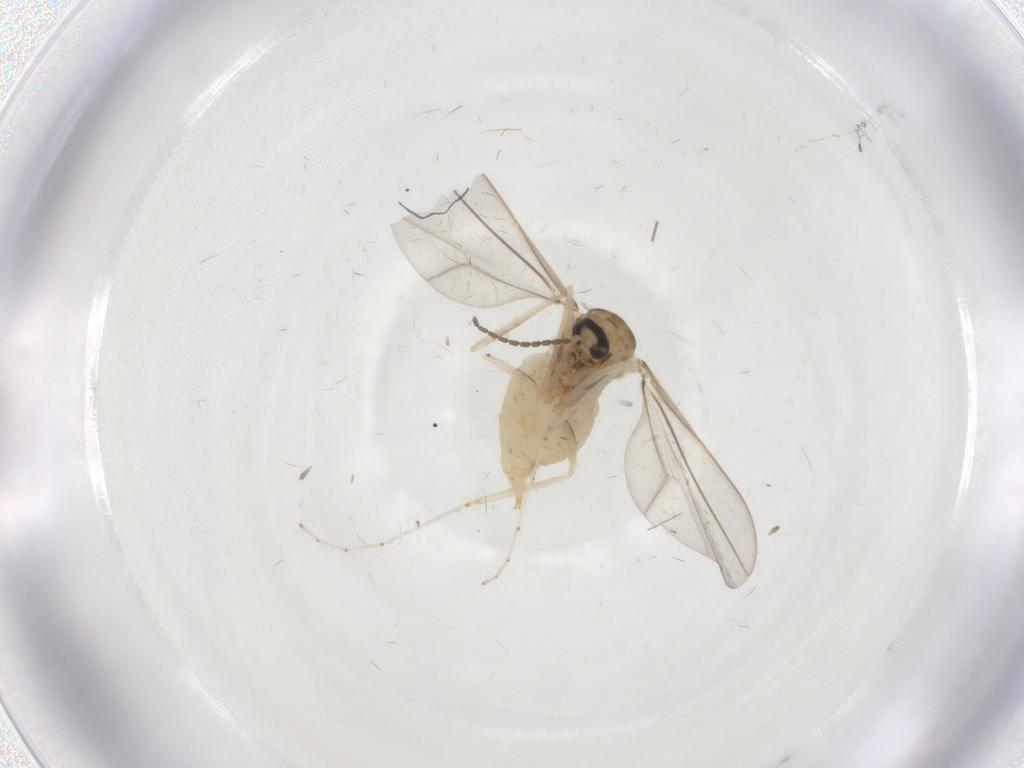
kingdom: Animalia
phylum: Arthropoda
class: Insecta
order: Diptera
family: Cecidomyiidae
